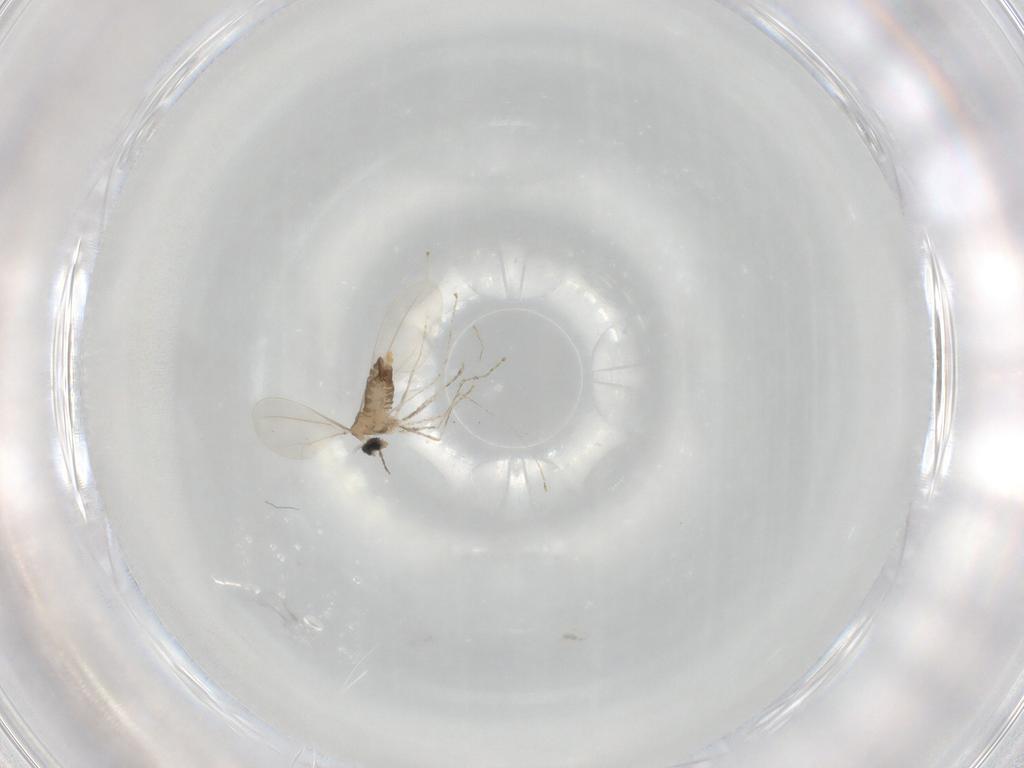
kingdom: Animalia
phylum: Arthropoda
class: Insecta
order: Diptera
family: Cecidomyiidae
